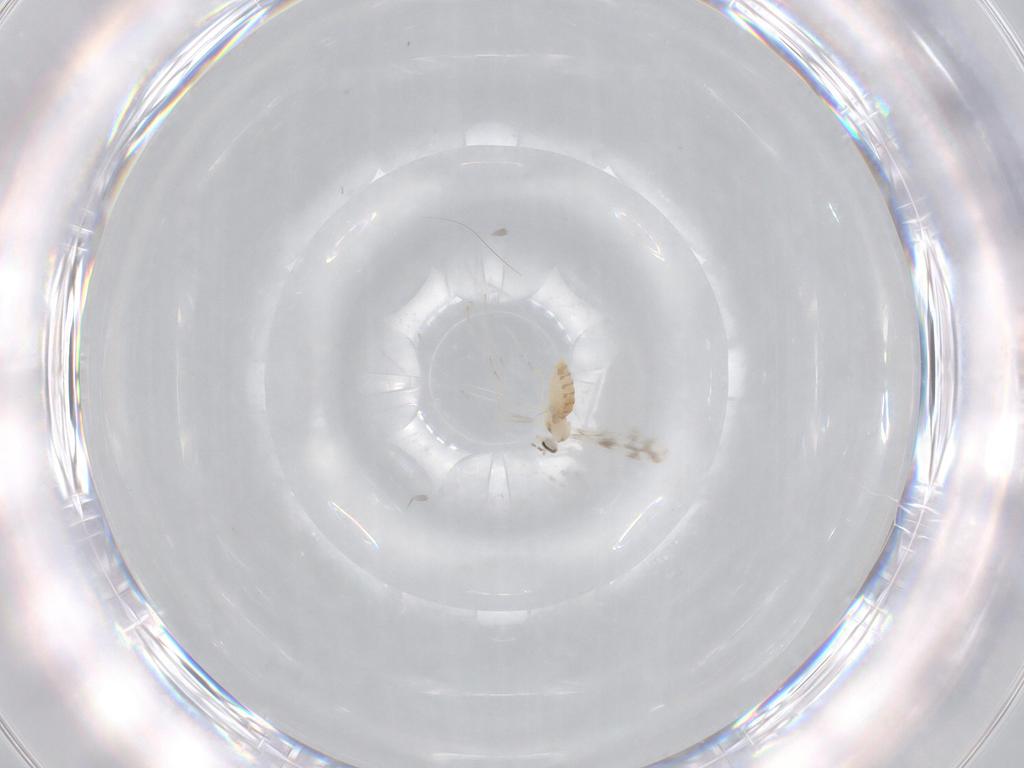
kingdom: Animalia
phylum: Arthropoda
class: Insecta
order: Diptera
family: Cecidomyiidae
